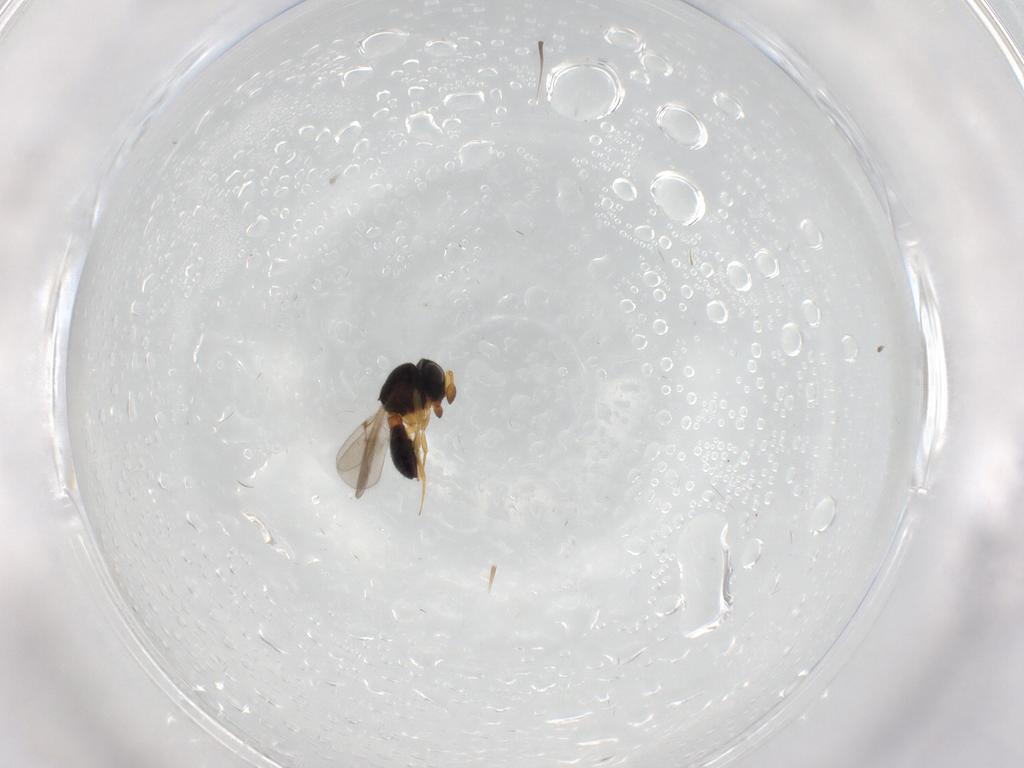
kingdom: Animalia
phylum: Arthropoda
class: Insecta
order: Hymenoptera
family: Scelionidae
